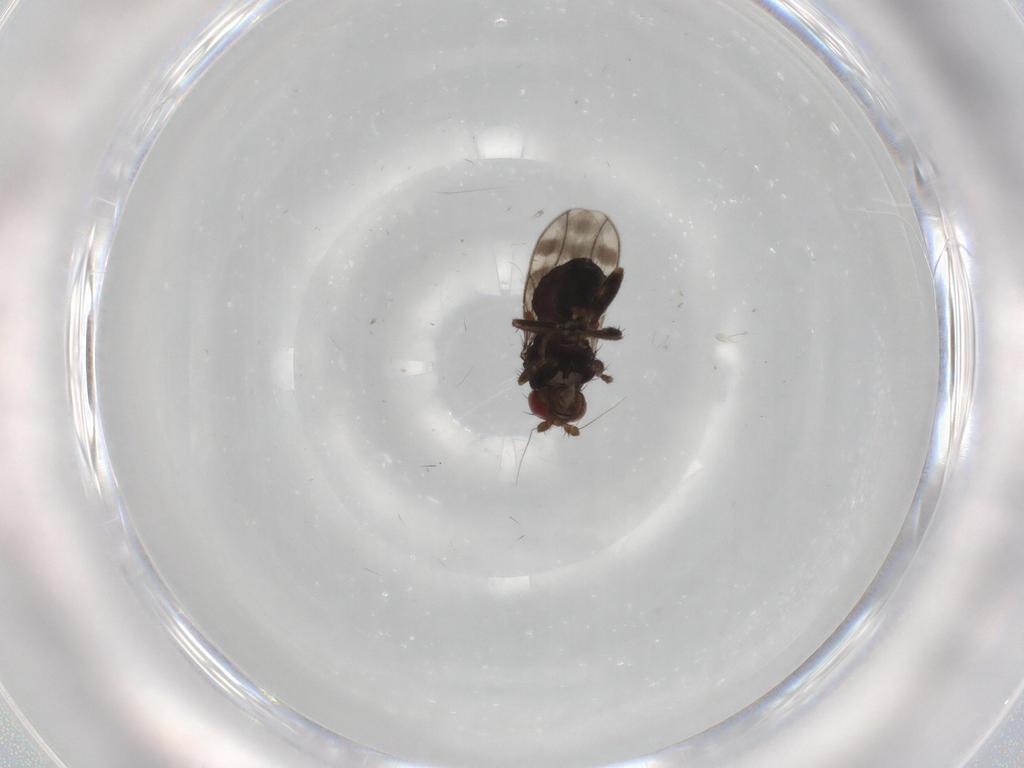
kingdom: Animalia
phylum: Arthropoda
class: Insecta
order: Diptera
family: Sphaeroceridae
